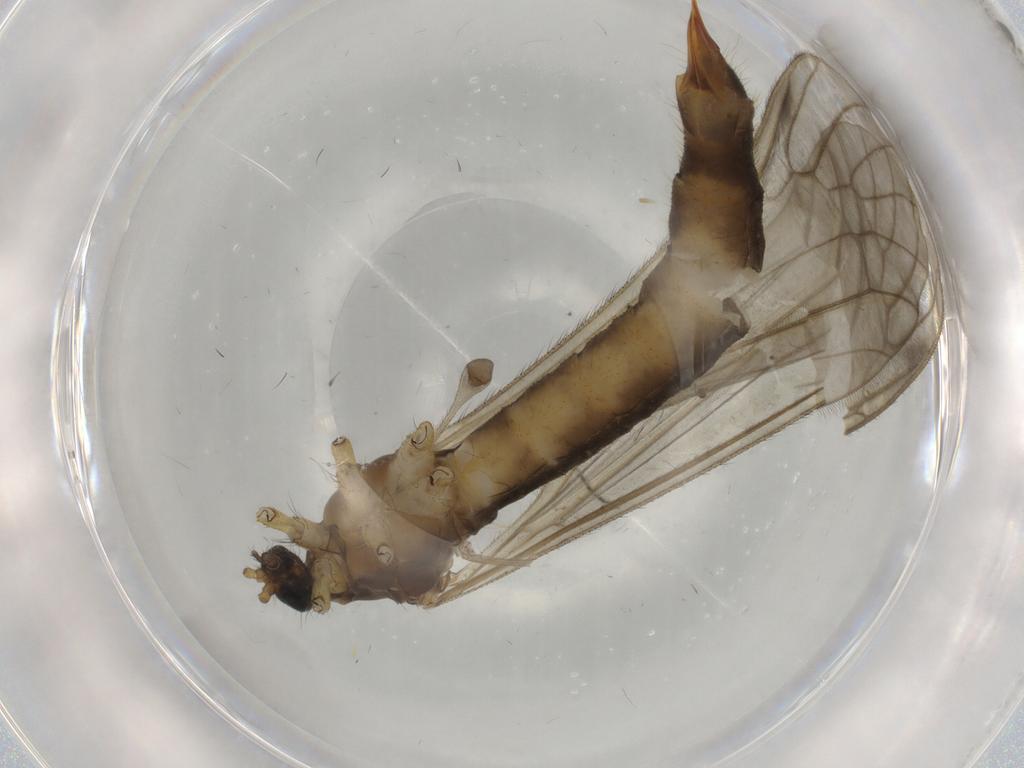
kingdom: Animalia
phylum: Arthropoda
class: Insecta
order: Diptera
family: Limoniidae
